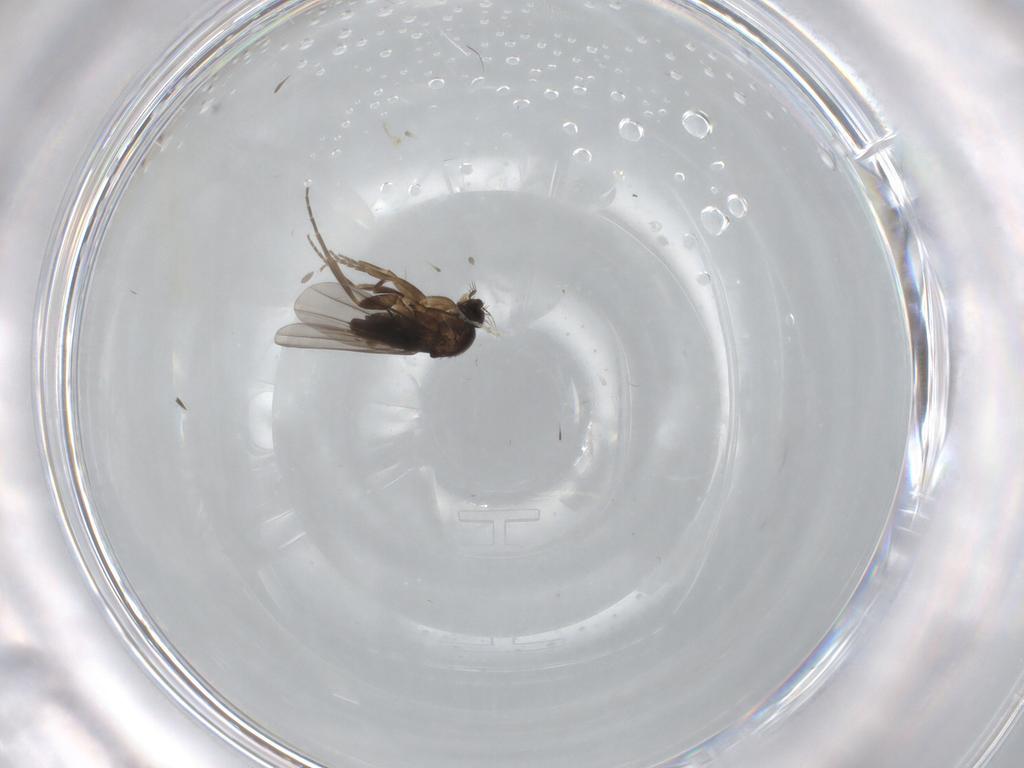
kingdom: Animalia
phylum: Arthropoda
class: Insecta
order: Diptera
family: Phoridae
